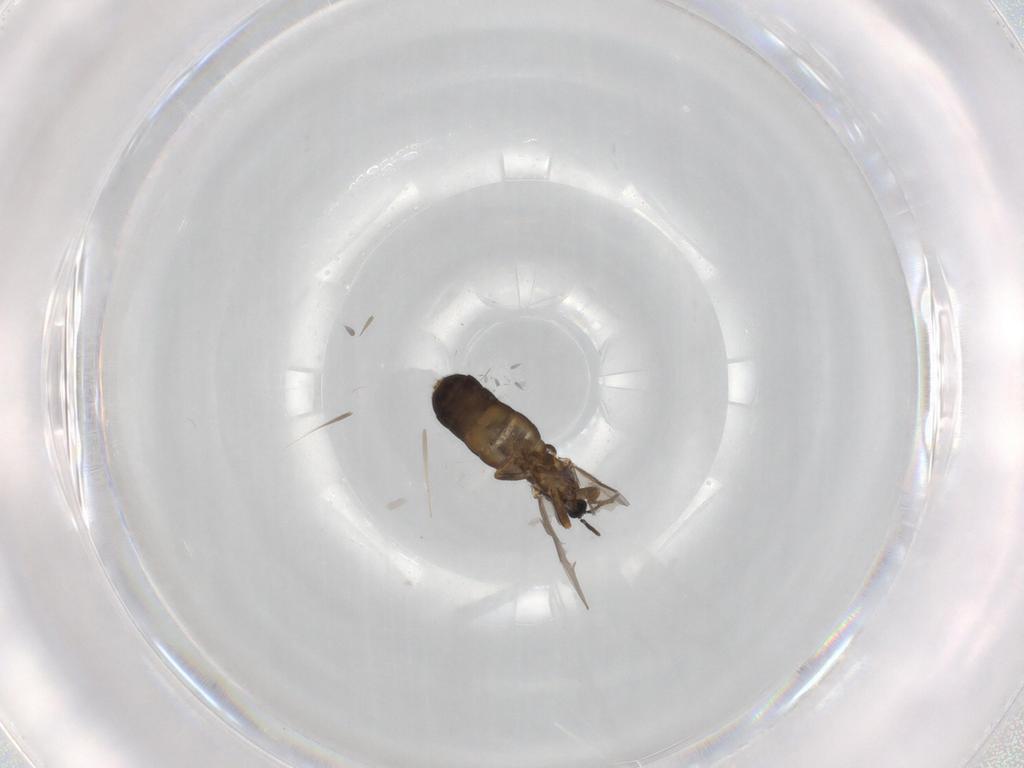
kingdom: Animalia
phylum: Arthropoda
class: Insecta
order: Diptera
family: Scatopsidae
